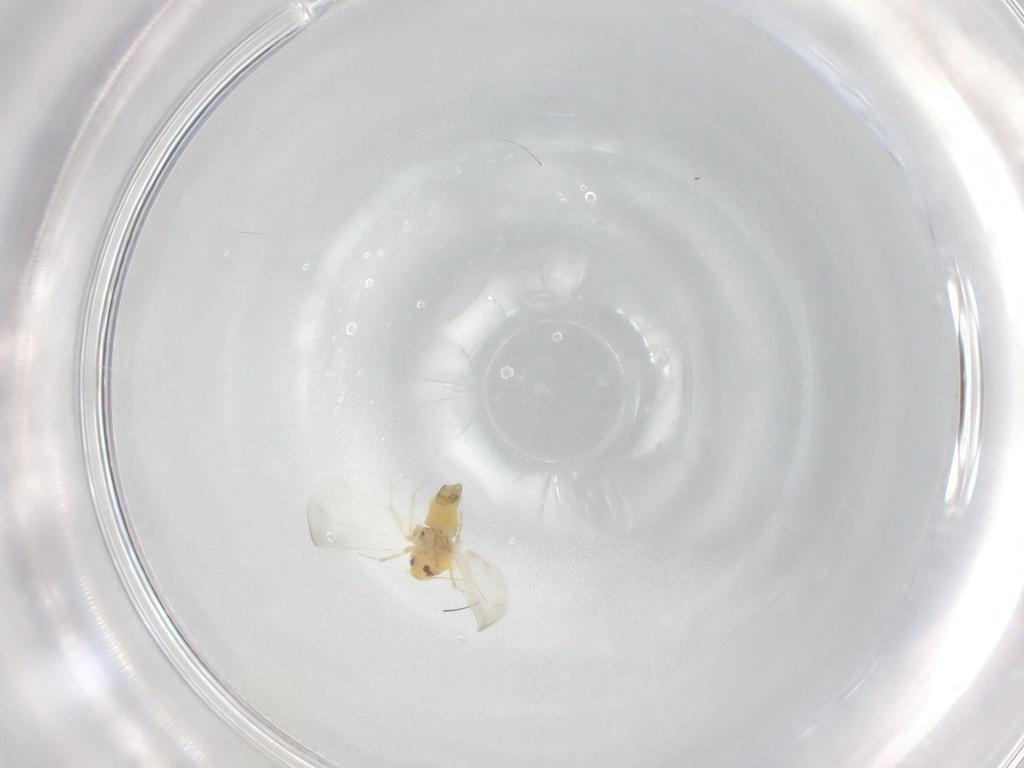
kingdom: Animalia
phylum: Arthropoda
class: Insecta
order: Hemiptera
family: Aleyrodidae
